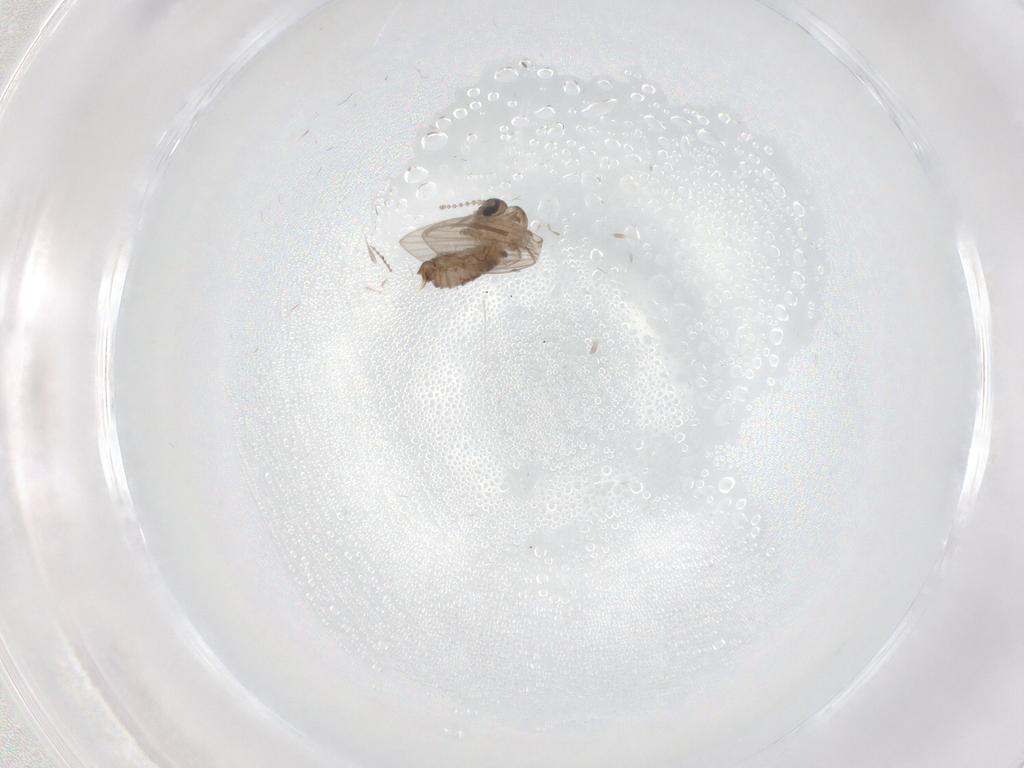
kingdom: Animalia
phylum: Arthropoda
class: Insecta
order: Diptera
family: Psychodidae
